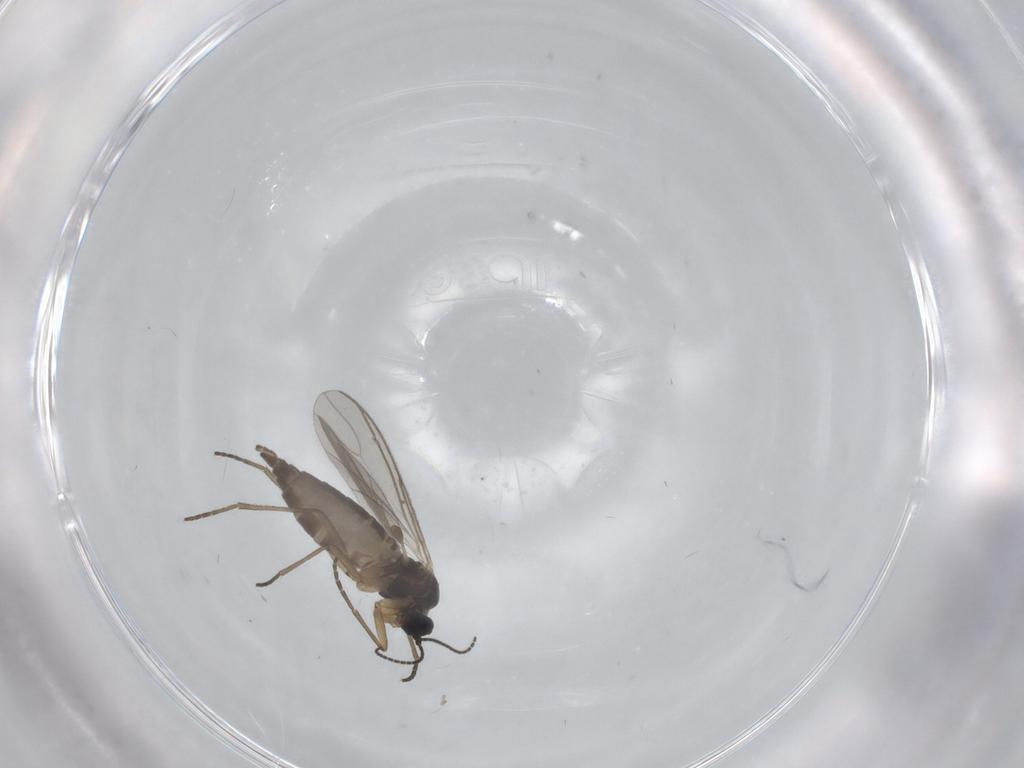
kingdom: Animalia
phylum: Arthropoda
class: Insecta
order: Diptera
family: Sciaridae
